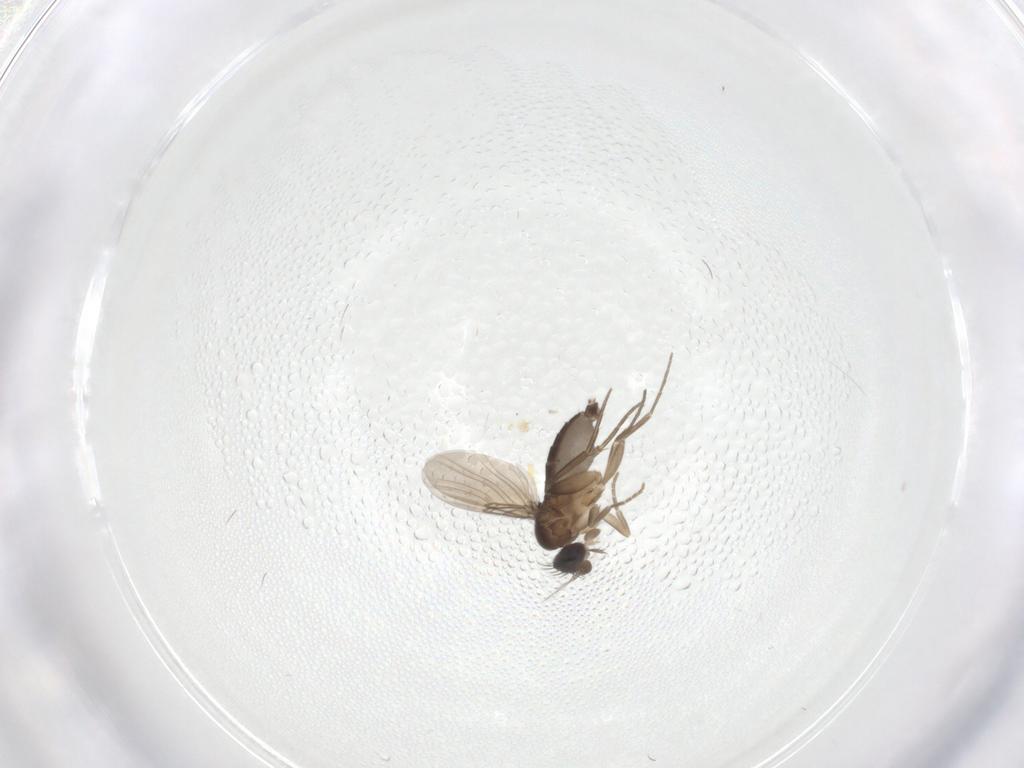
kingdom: Animalia
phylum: Arthropoda
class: Insecta
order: Diptera
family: Phoridae
